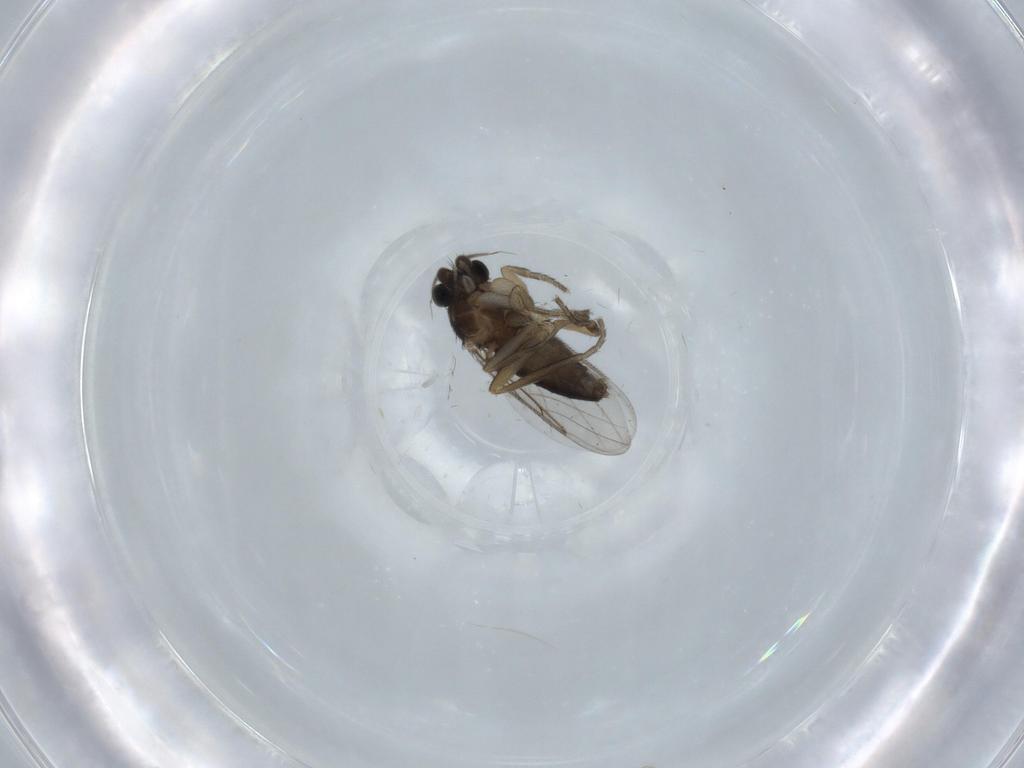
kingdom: Animalia
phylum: Arthropoda
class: Insecta
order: Diptera
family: Phoridae
